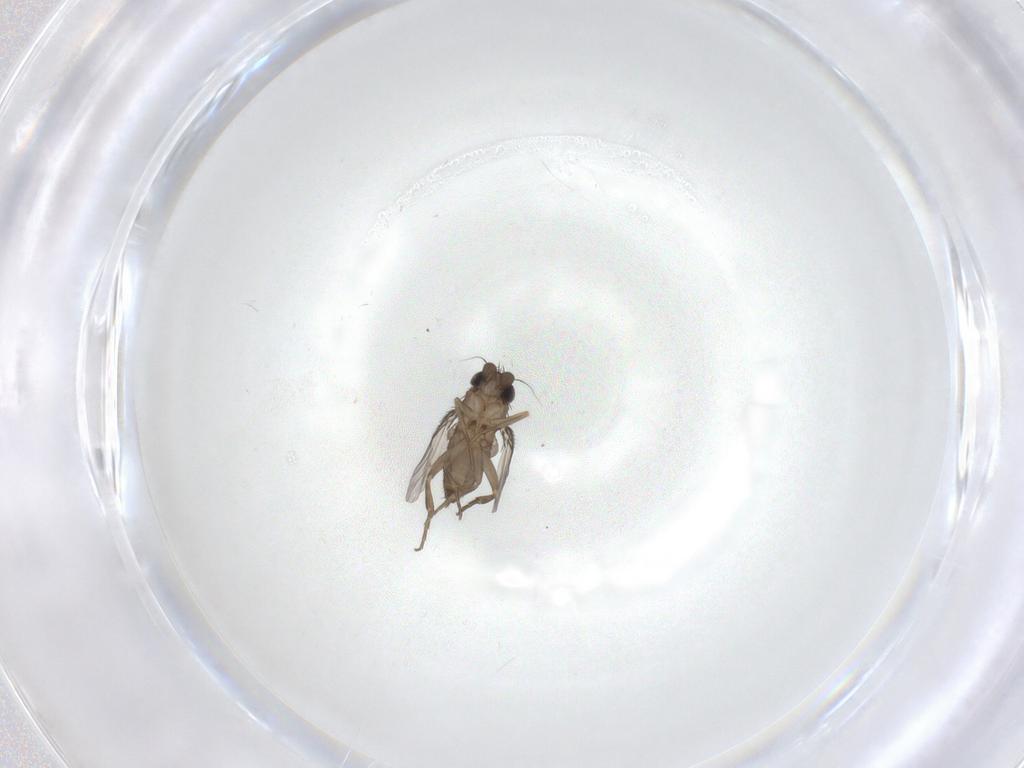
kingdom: Animalia
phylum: Arthropoda
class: Insecta
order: Diptera
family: Phoridae
